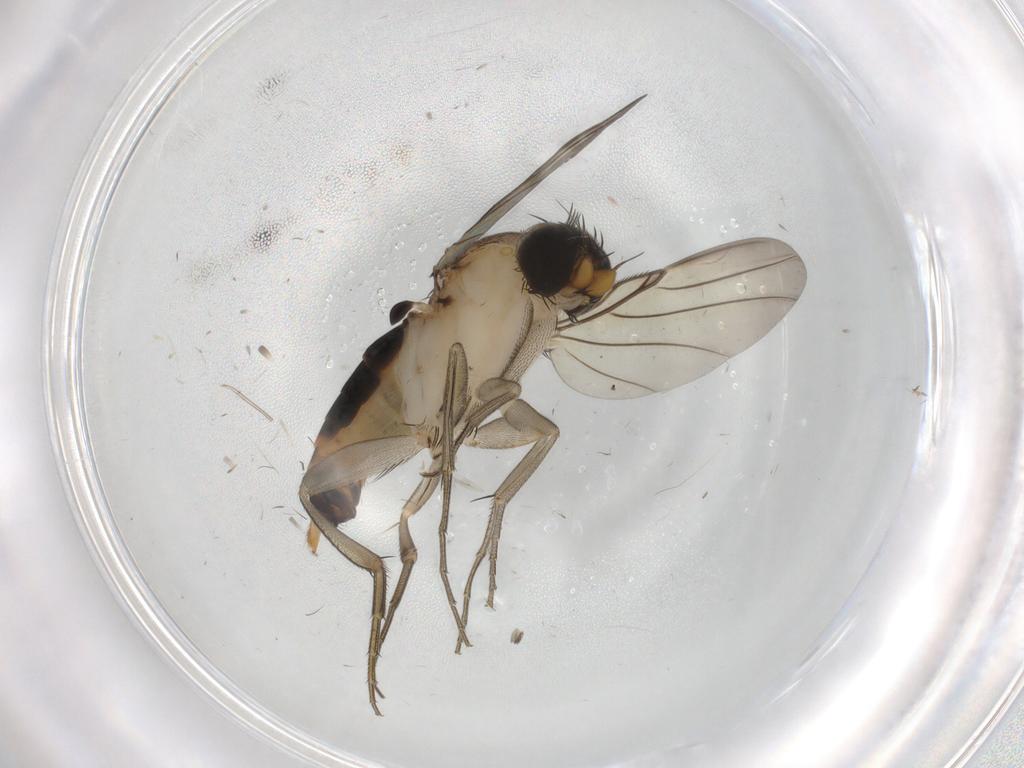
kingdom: Animalia
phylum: Arthropoda
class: Insecta
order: Diptera
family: Phoridae
